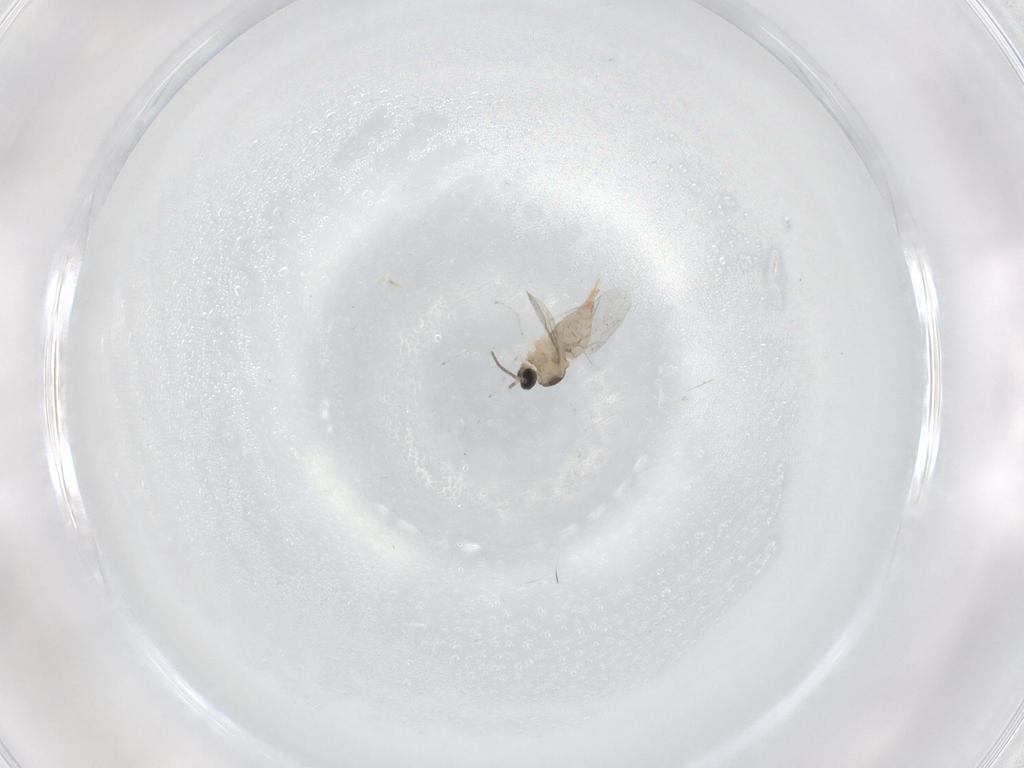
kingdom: Animalia
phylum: Arthropoda
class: Insecta
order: Diptera
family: Cecidomyiidae
